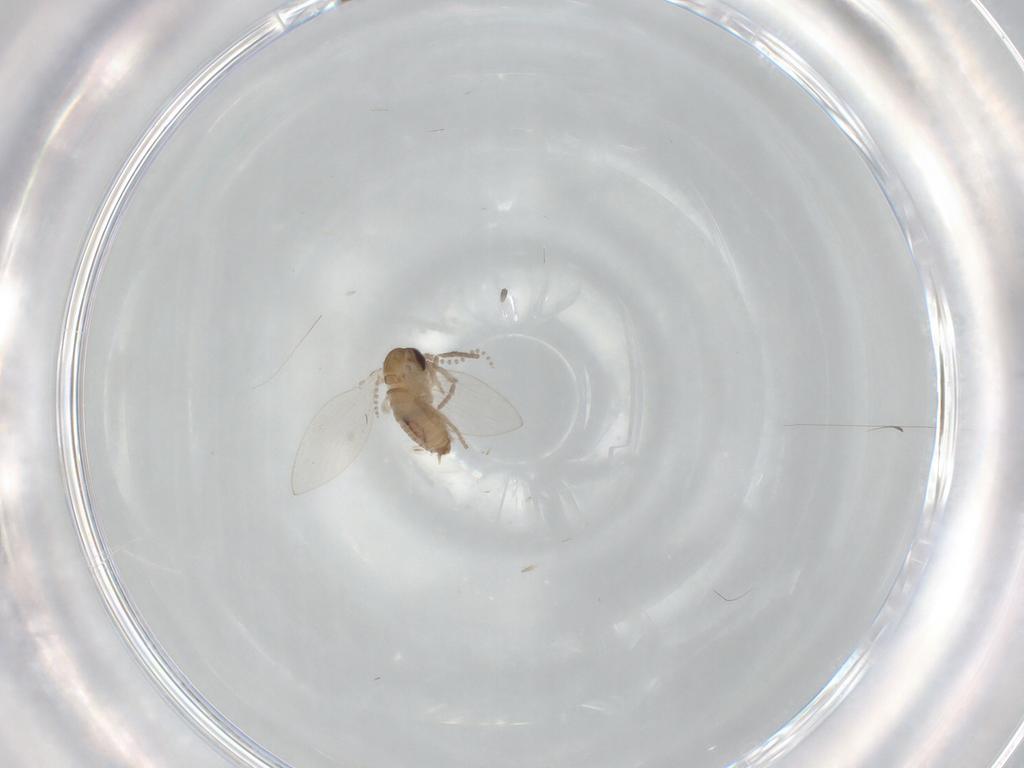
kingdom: Animalia
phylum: Arthropoda
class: Insecta
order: Diptera
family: Psychodidae
